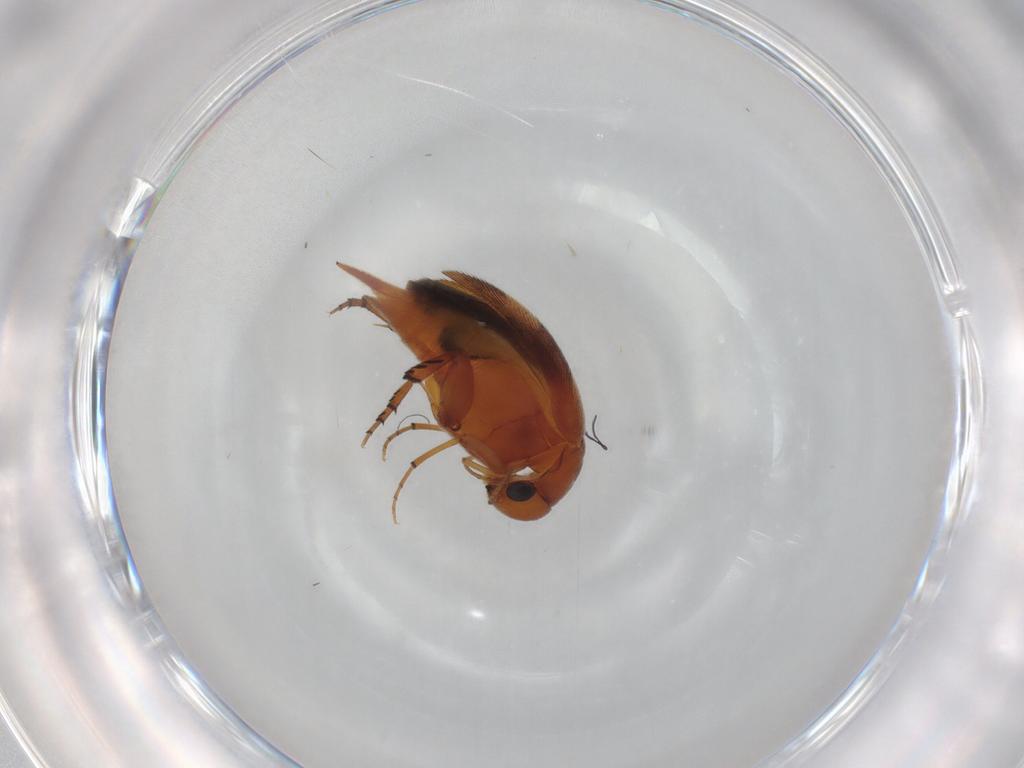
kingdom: Animalia
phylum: Arthropoda
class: Insecta
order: Coleoptera
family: Mordellidae
